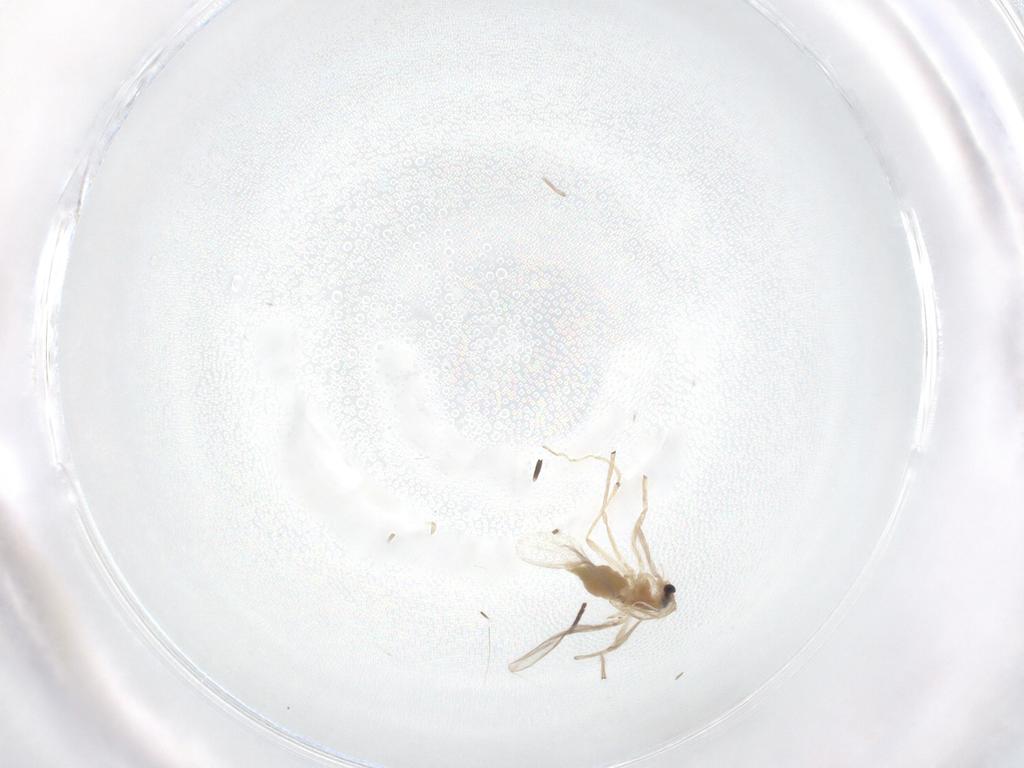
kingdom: Animalia
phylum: Arthropoda
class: Insecta
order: Diptera
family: Chironomidae
